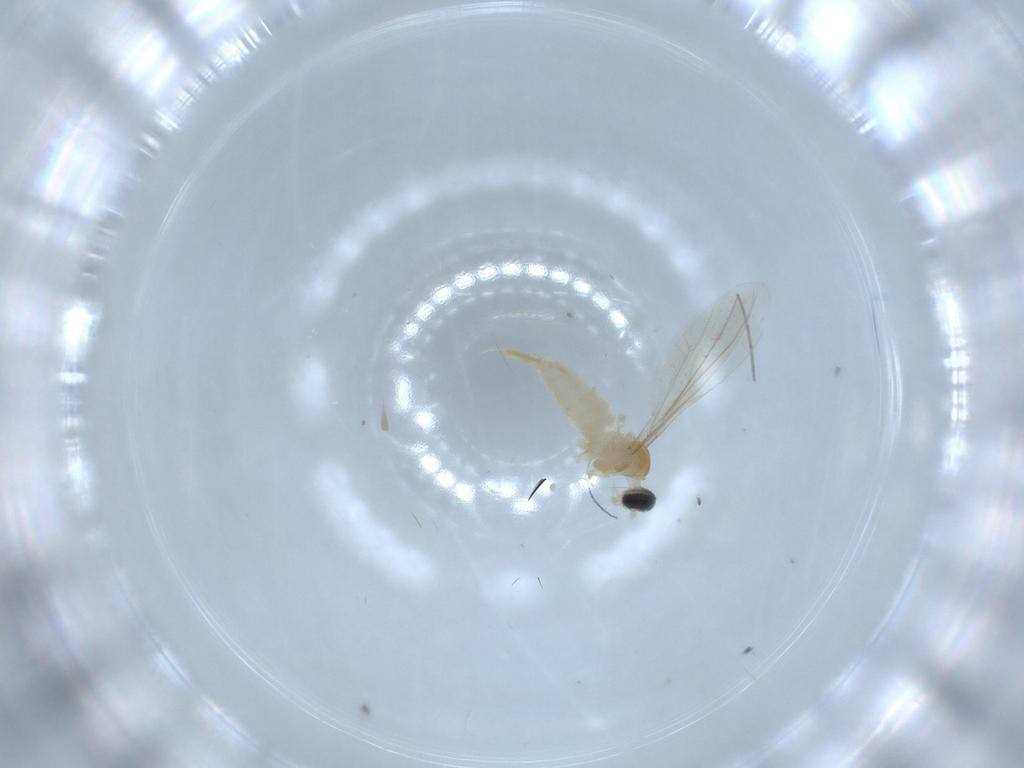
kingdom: Animalia
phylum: Arthropoda
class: Insecta
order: Diptera
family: Cecidomyiidae
